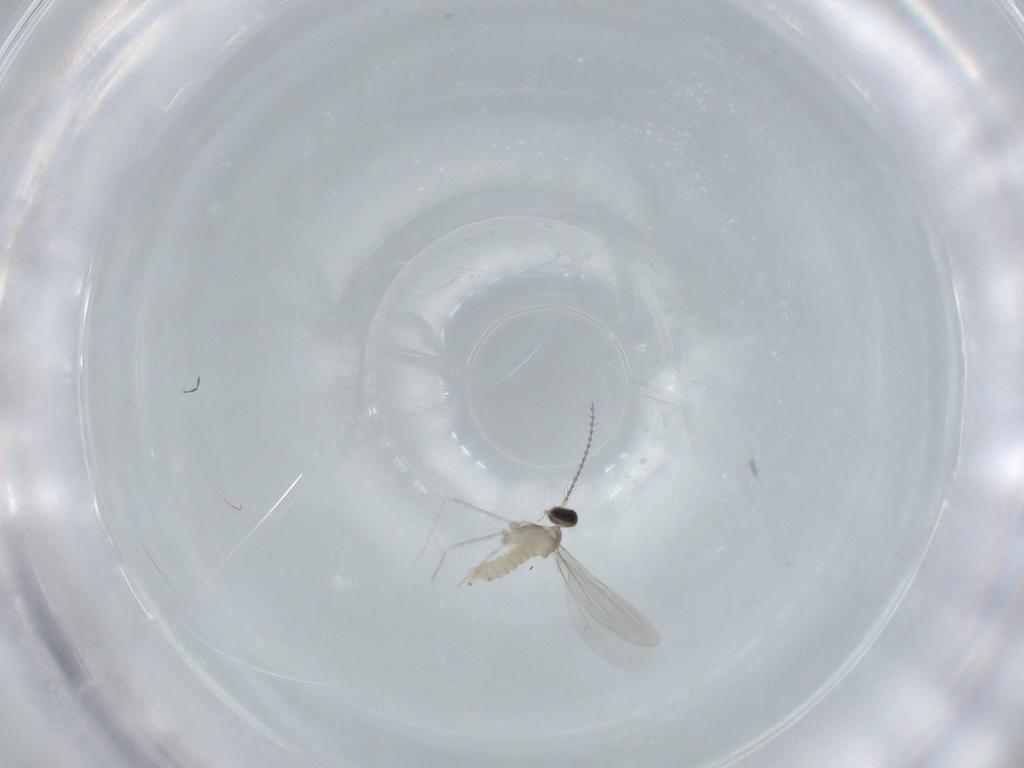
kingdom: Animalia
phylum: Arthropoda
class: Insecta
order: Diptera
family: Cecidomyiidae
